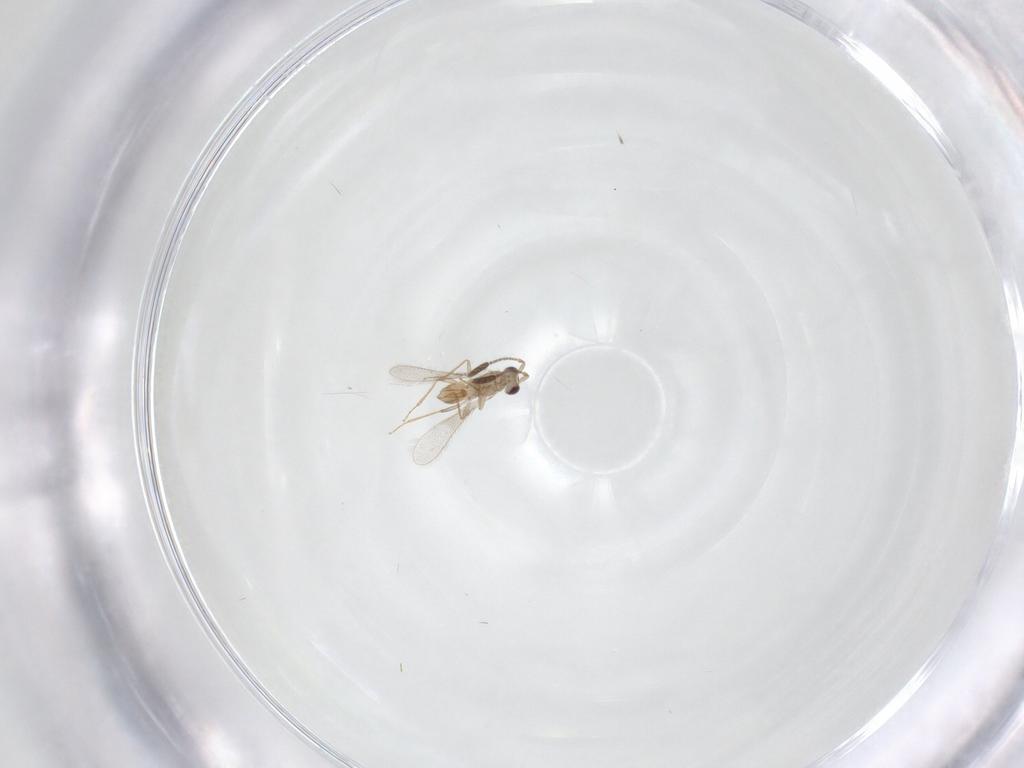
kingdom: Animalia
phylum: Arthropoda
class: Insecta
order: Hymenoptera
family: Mymaridae
